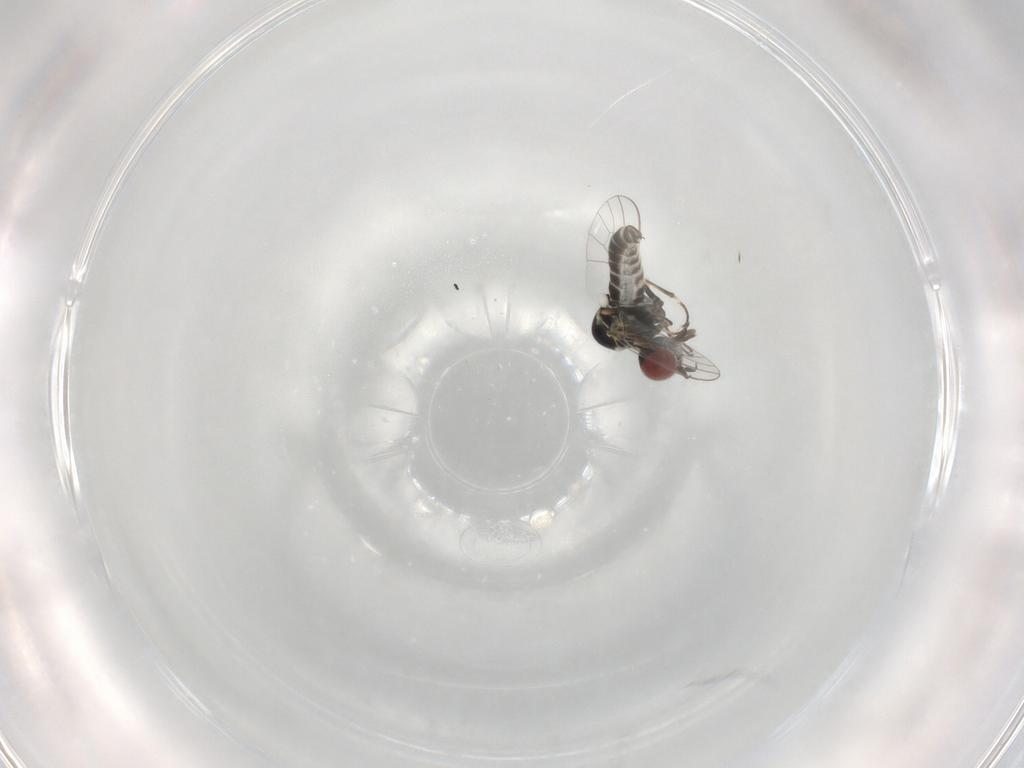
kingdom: Animalia
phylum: Arthropoda
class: Insecta
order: Diptera
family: Mythicomyiidae
